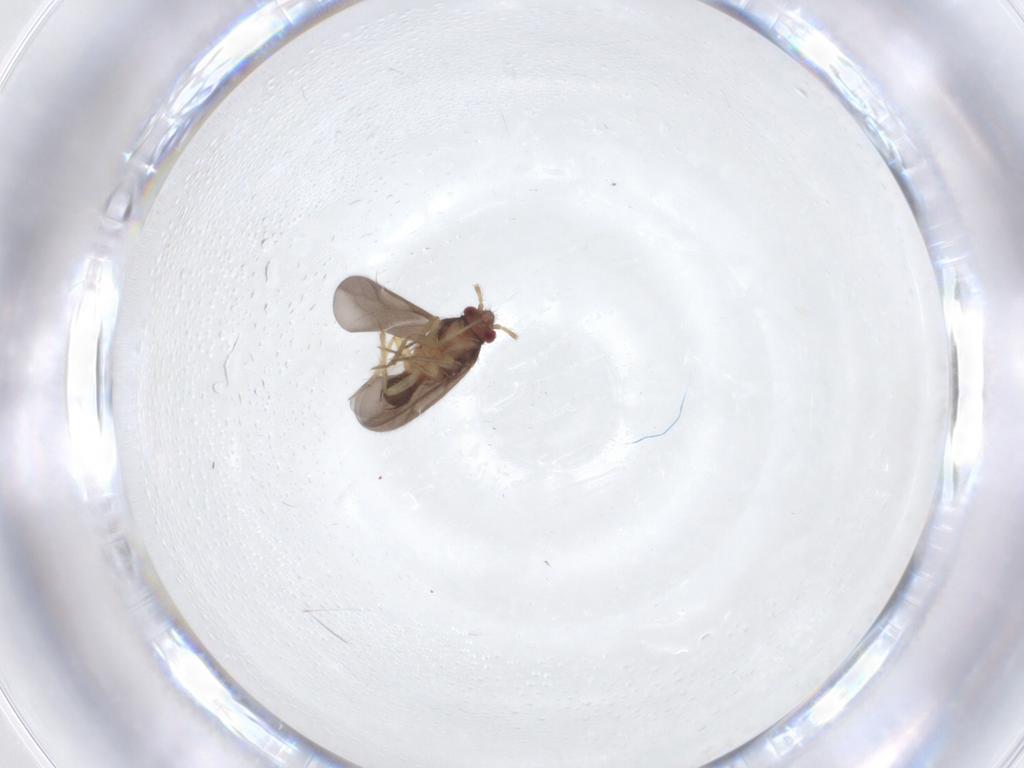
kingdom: Animalia
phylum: Arthropoda
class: Insecta
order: Hemiptera
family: Ceratocombidae
